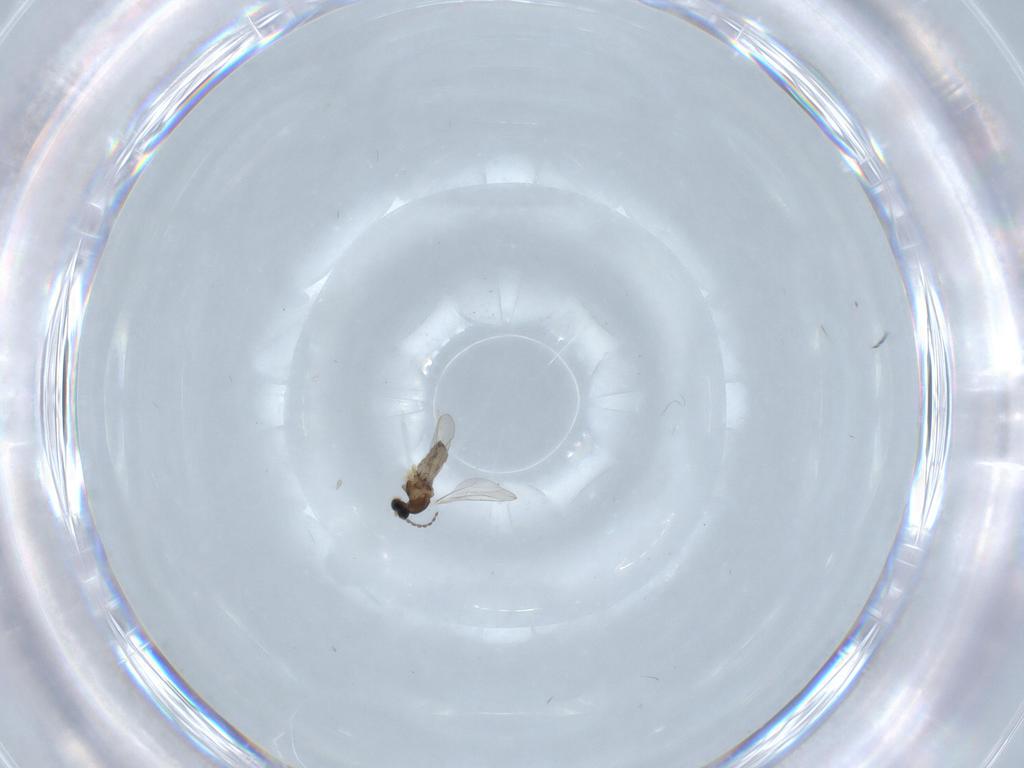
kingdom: Animalia
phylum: Arthropoda
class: Insecta
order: Diptera
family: Cecidomyiidae
